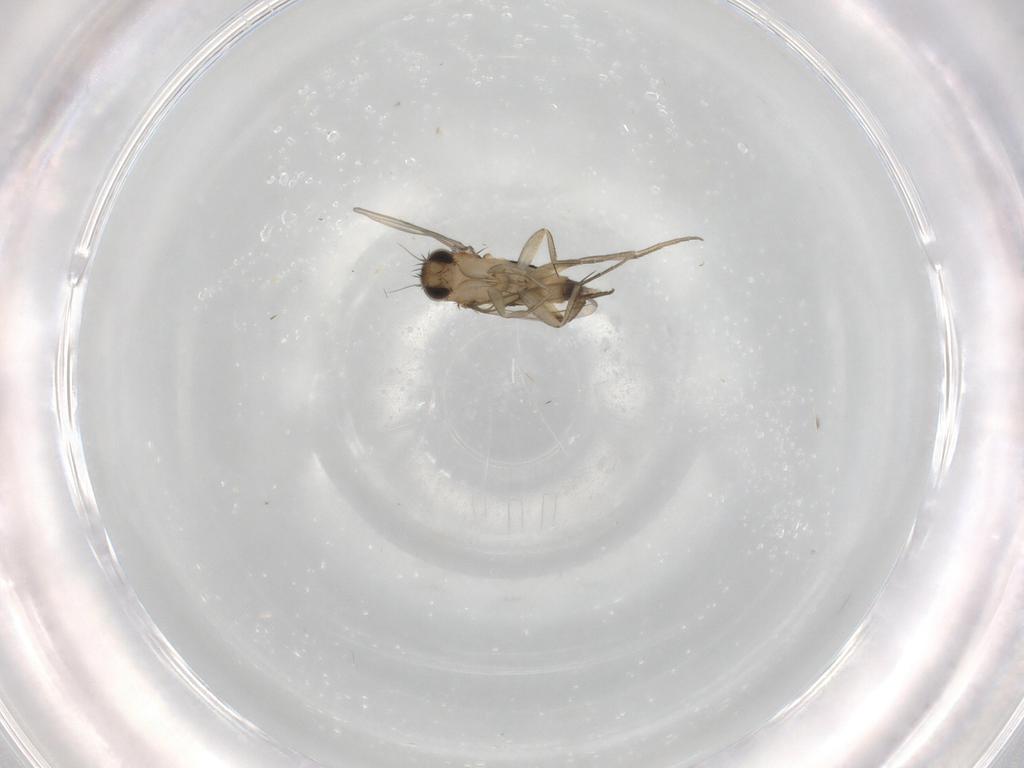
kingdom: Animalia
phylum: Arthropoda
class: Insecta
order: Diptera
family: Phoridae
